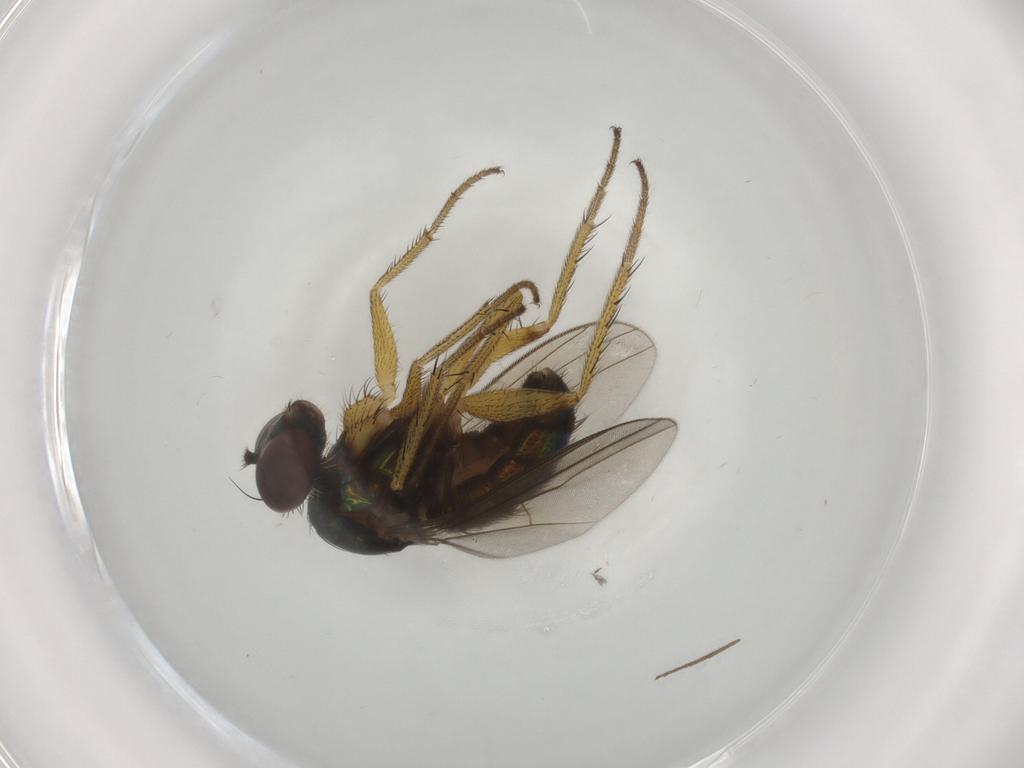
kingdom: Animalia
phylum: Arthropoda
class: Insecta
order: Diptera
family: Dolichopodidae
